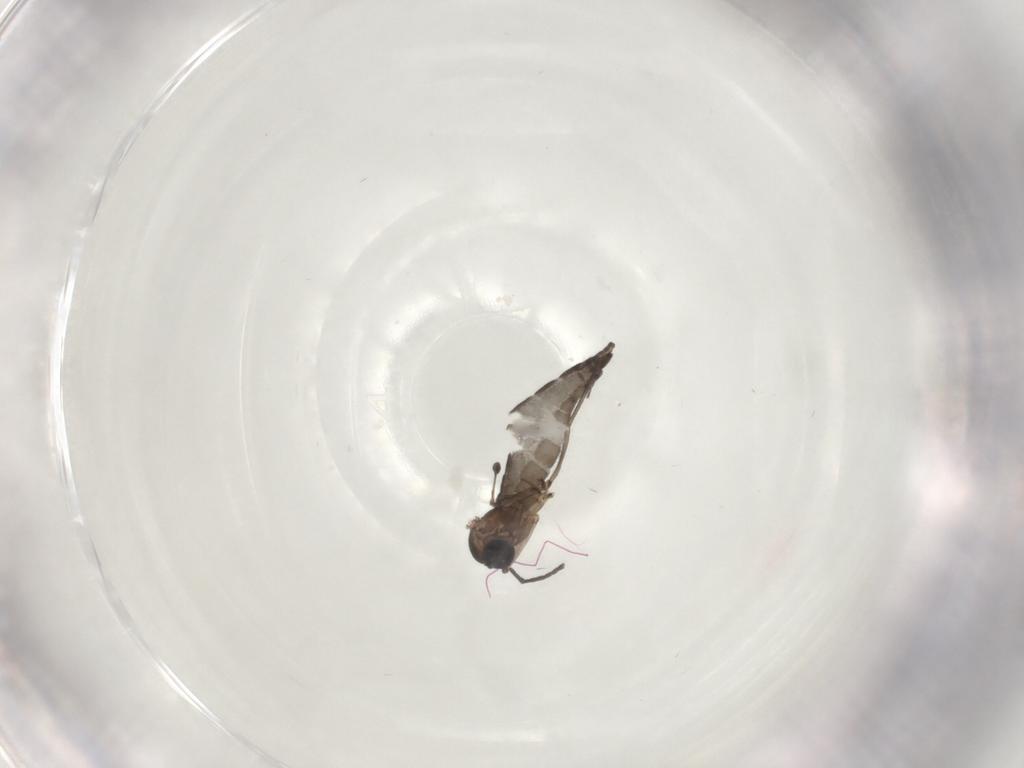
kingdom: Animalia
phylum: Arthropoda
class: Insecta
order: Diptera
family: Sciaridae
